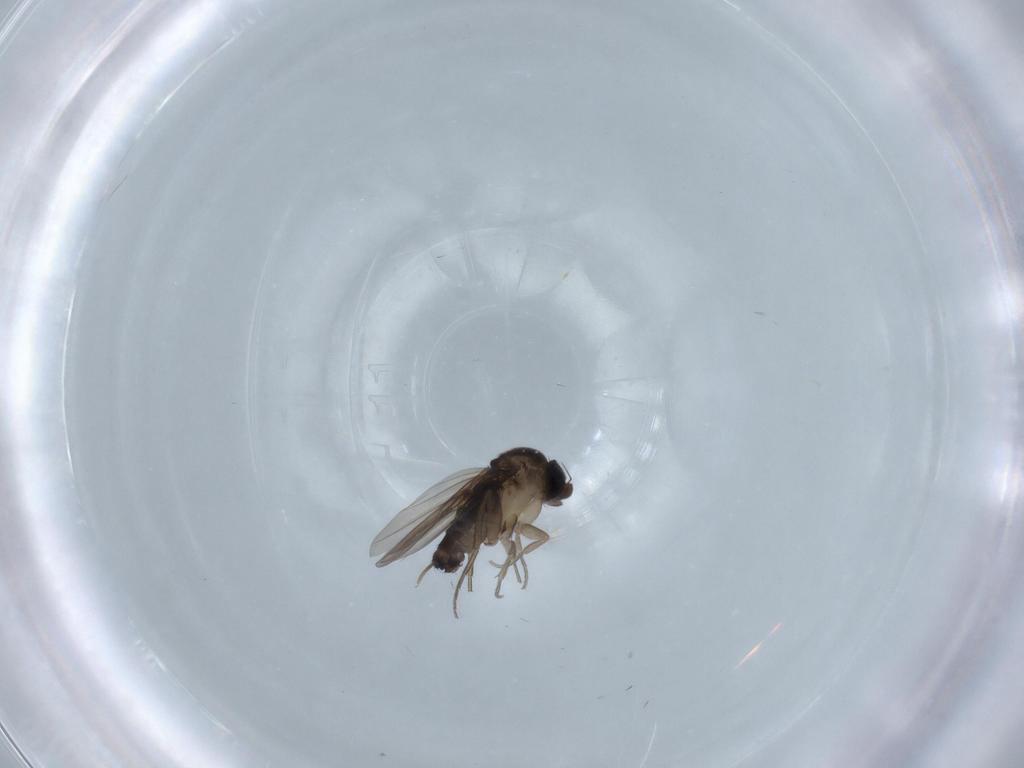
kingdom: Animalia
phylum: Arthropoda
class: Insecta
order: Diptera
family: Phoridae
